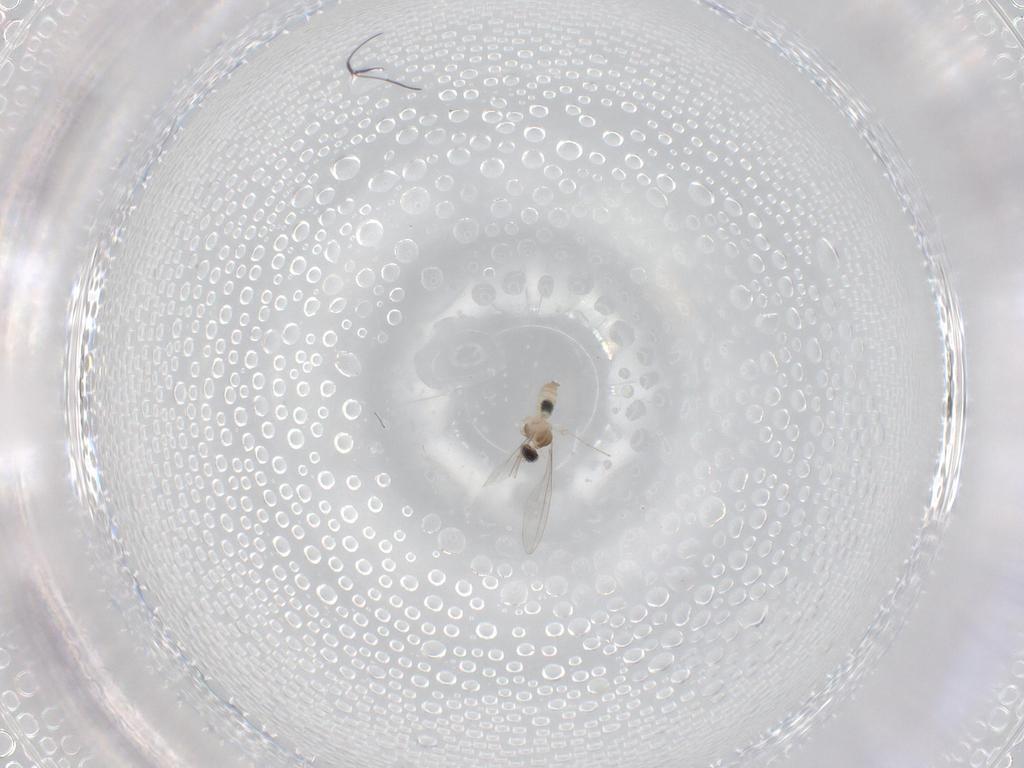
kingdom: Animalia
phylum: Arthropoda
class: Insecta
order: Diptera
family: Cecidomyiidae
